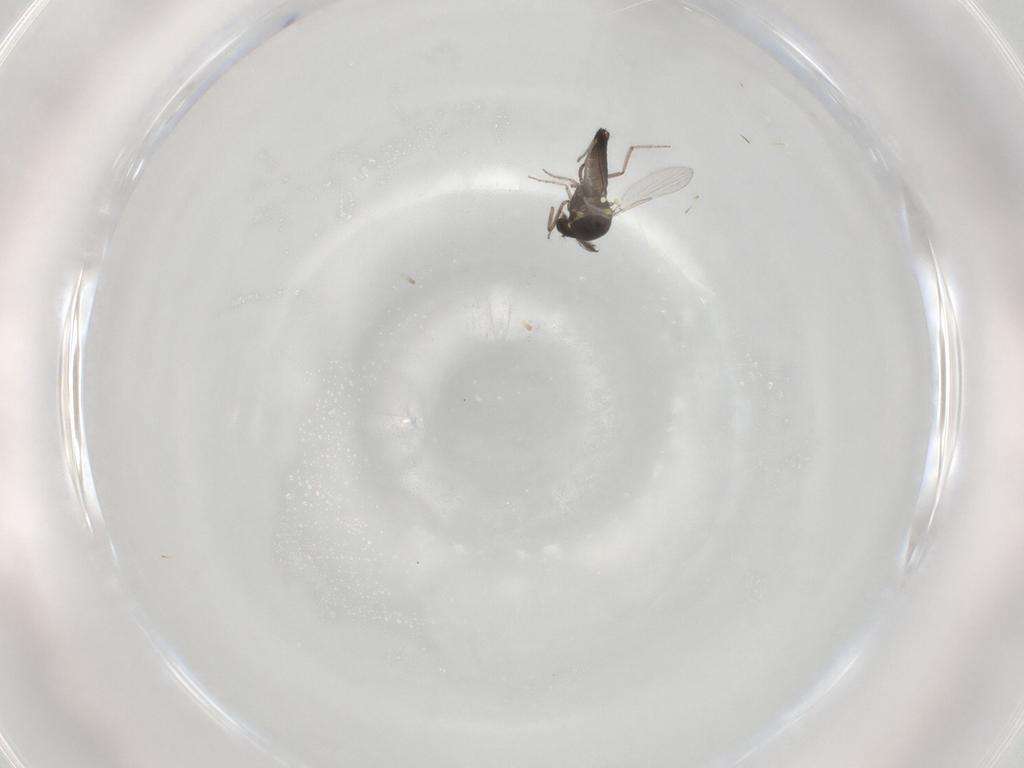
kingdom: Animalia
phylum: Arthropoda
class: Insecta
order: Diptera
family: Ceratopogonidae
